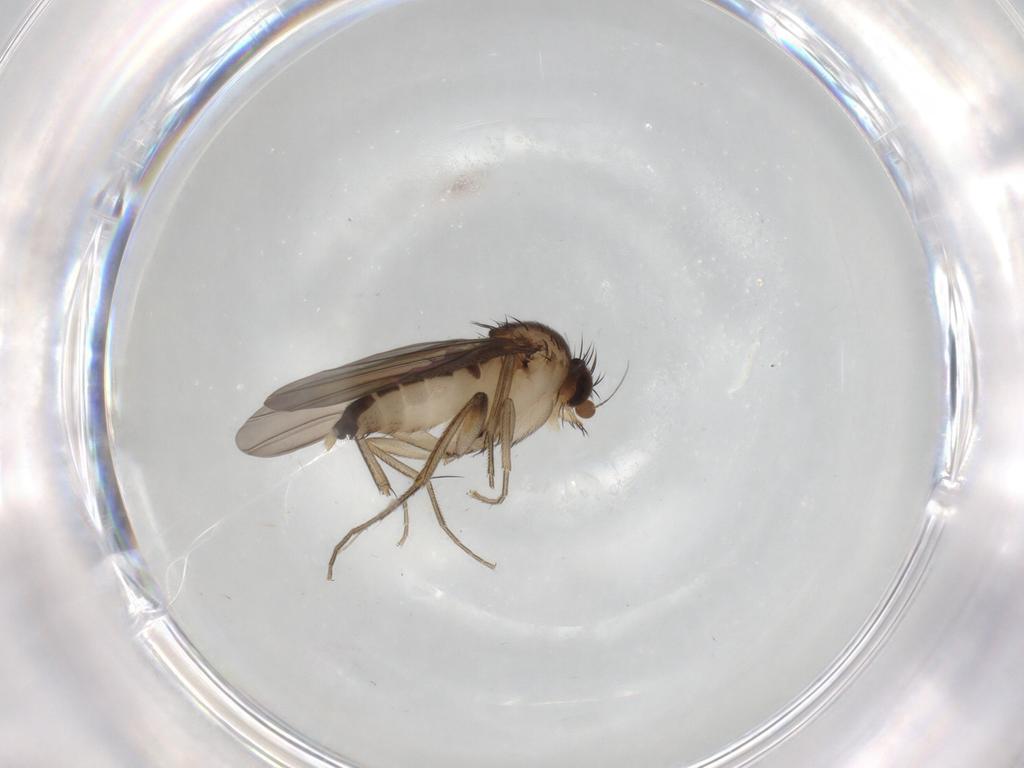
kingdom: Animalia
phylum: Arthropoda
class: Insecta
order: Diptera
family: Phoridae
